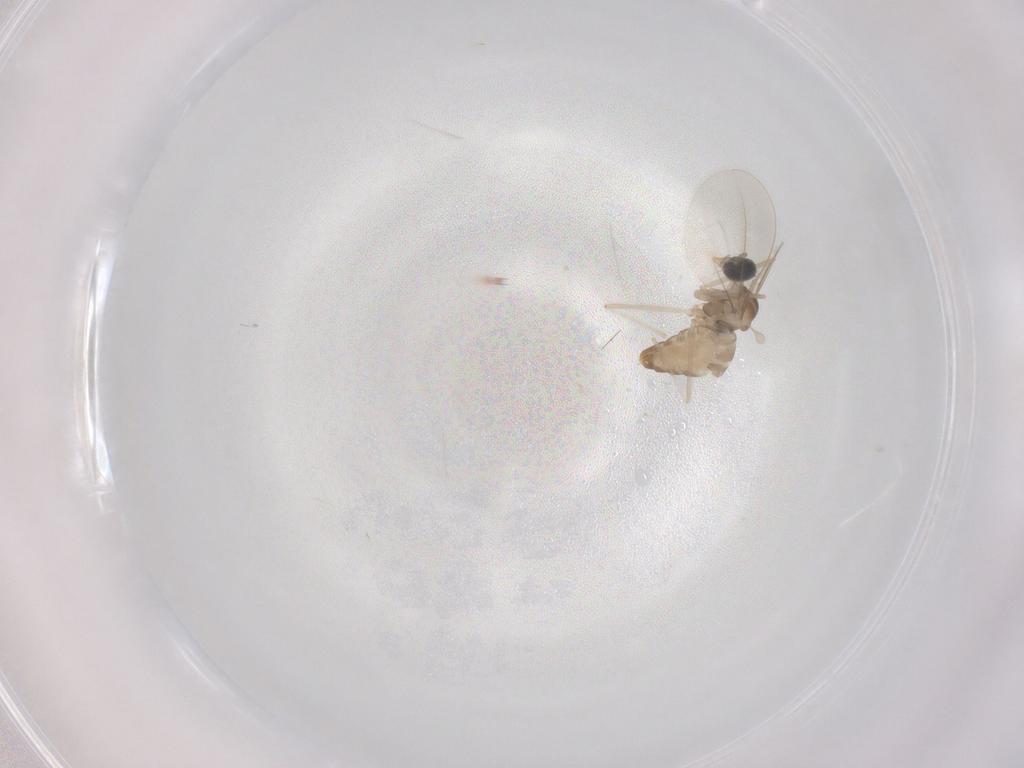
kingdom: Animalia
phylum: Arthropoda
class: Insecta
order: Diptera
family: Cecidomyiidae
